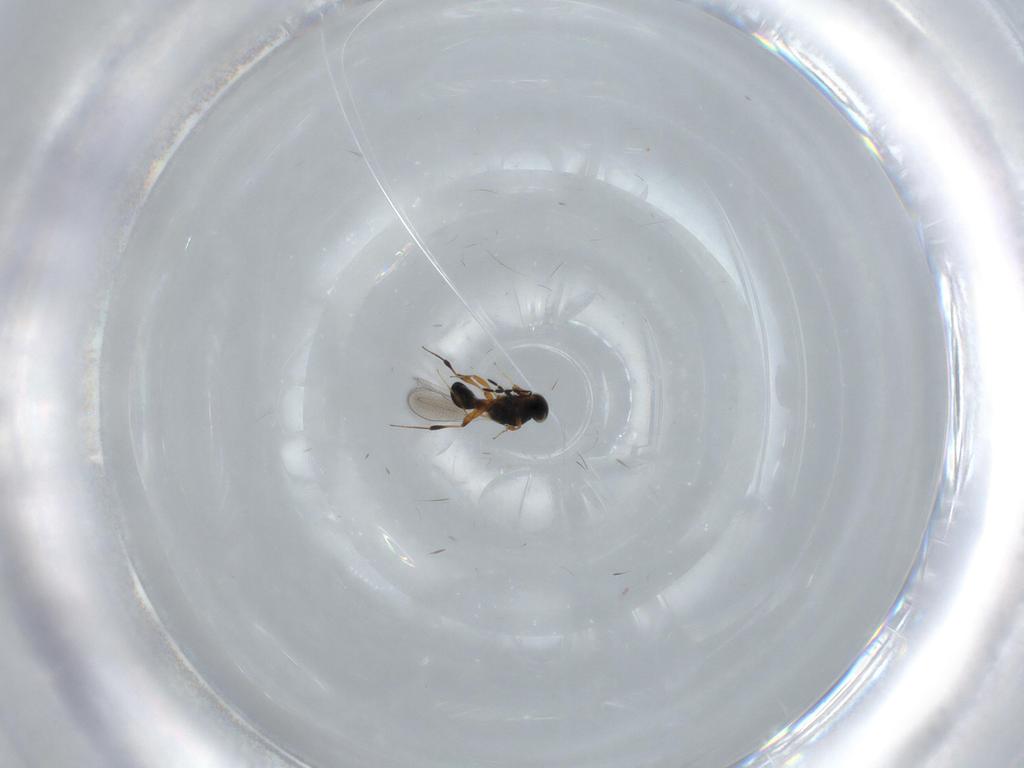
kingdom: Animalia
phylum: Arthropoda
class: Insecta
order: Hymenoptera
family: Platygastridae
